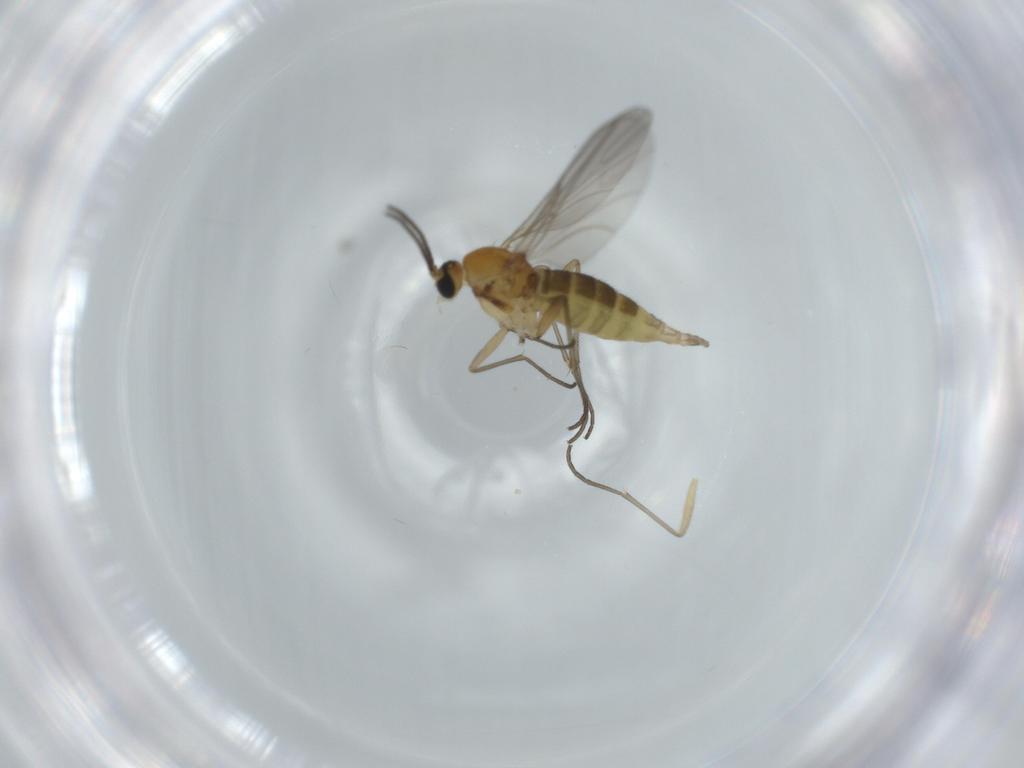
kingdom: Animalia
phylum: Arthropoda
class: Insecta
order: Diptera
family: Sciaridae
